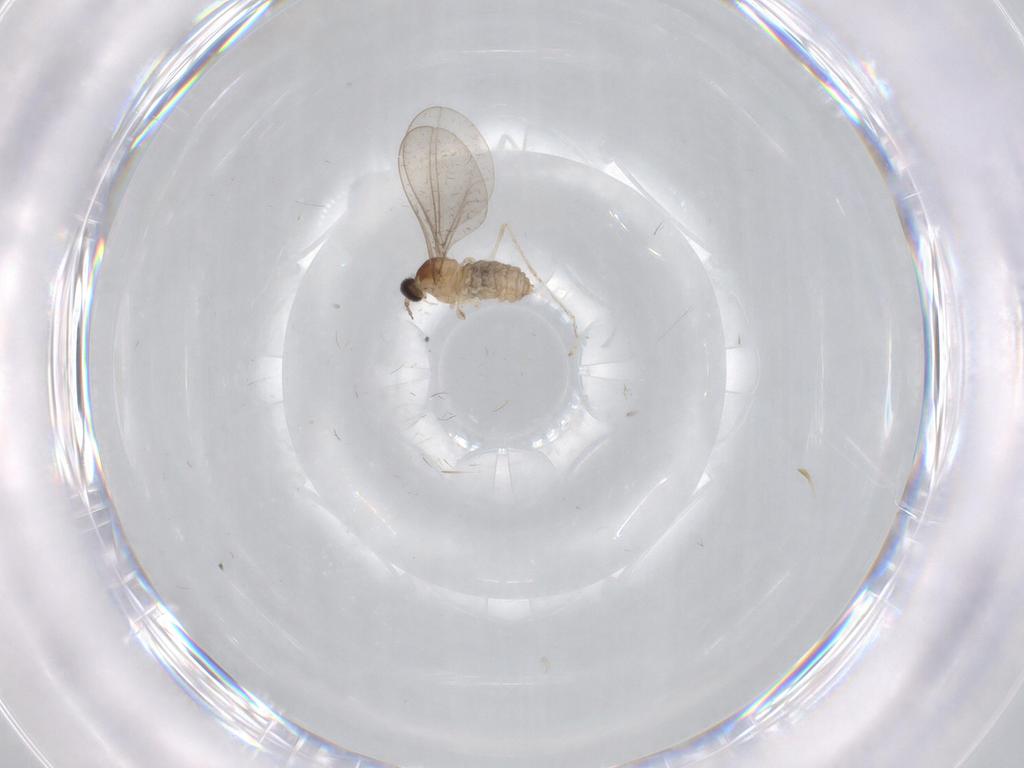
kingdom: Animalia
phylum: Arthropoda
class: Insecta
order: Diptera
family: Cecidomyiidae
